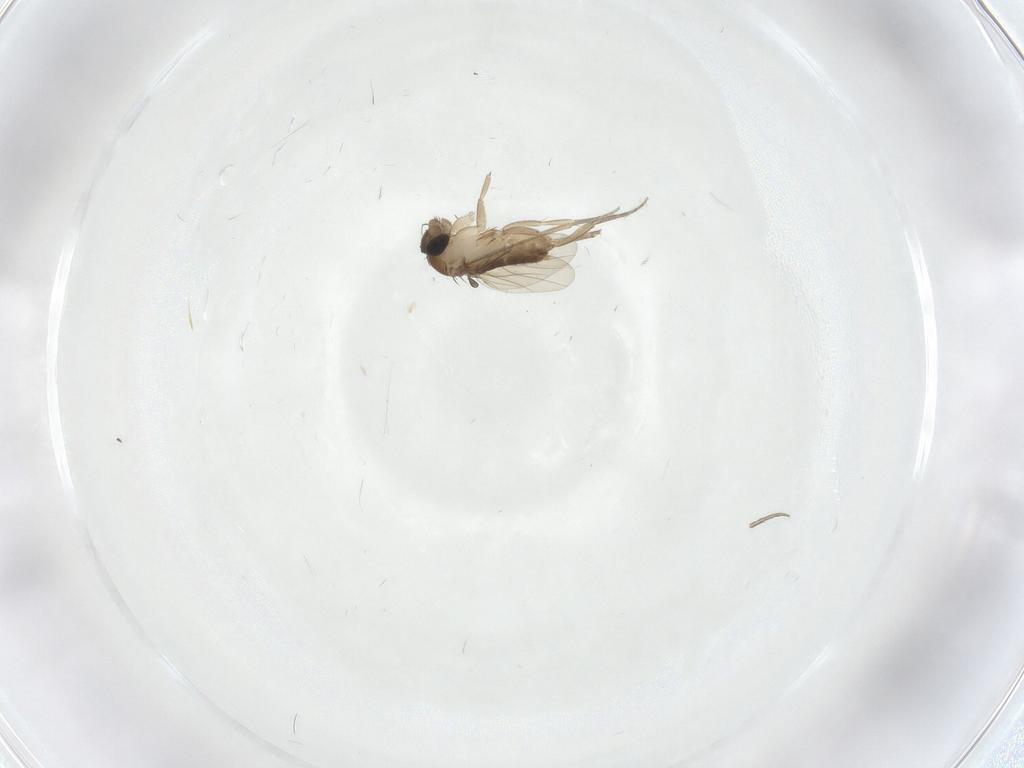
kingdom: Animalia
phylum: Arthropoda
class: Insecta
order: Diptera
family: Phoridae
